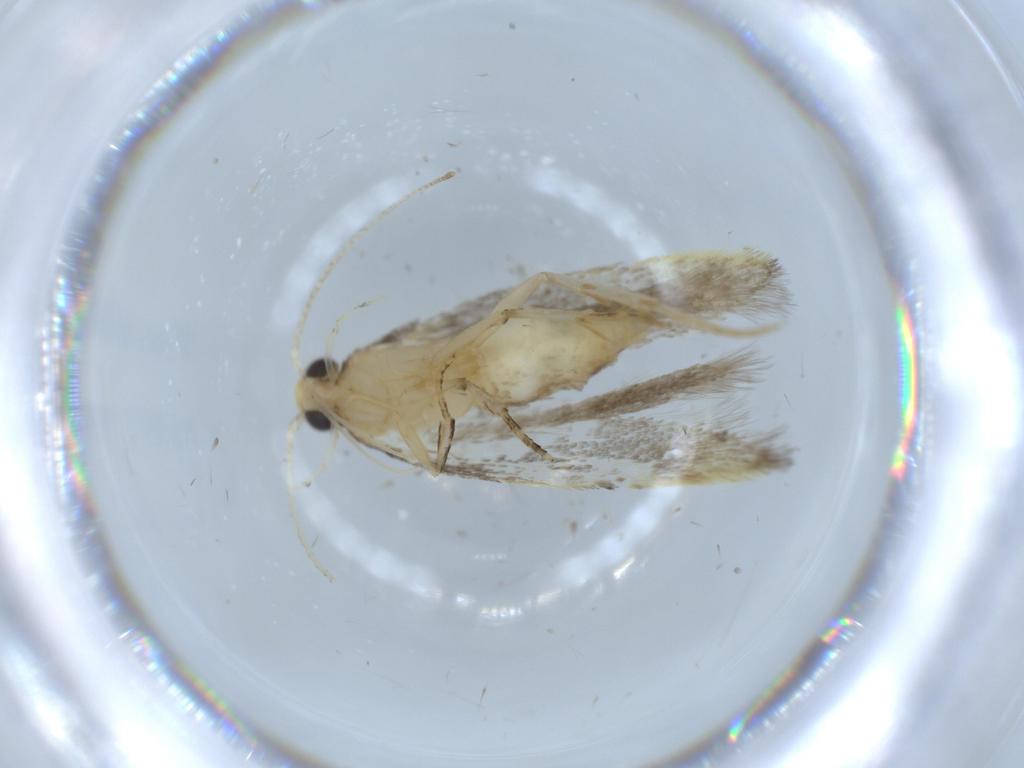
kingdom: Animalia
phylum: Arthropoda
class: Insecta
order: Lepidoptera
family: Autostichidae
